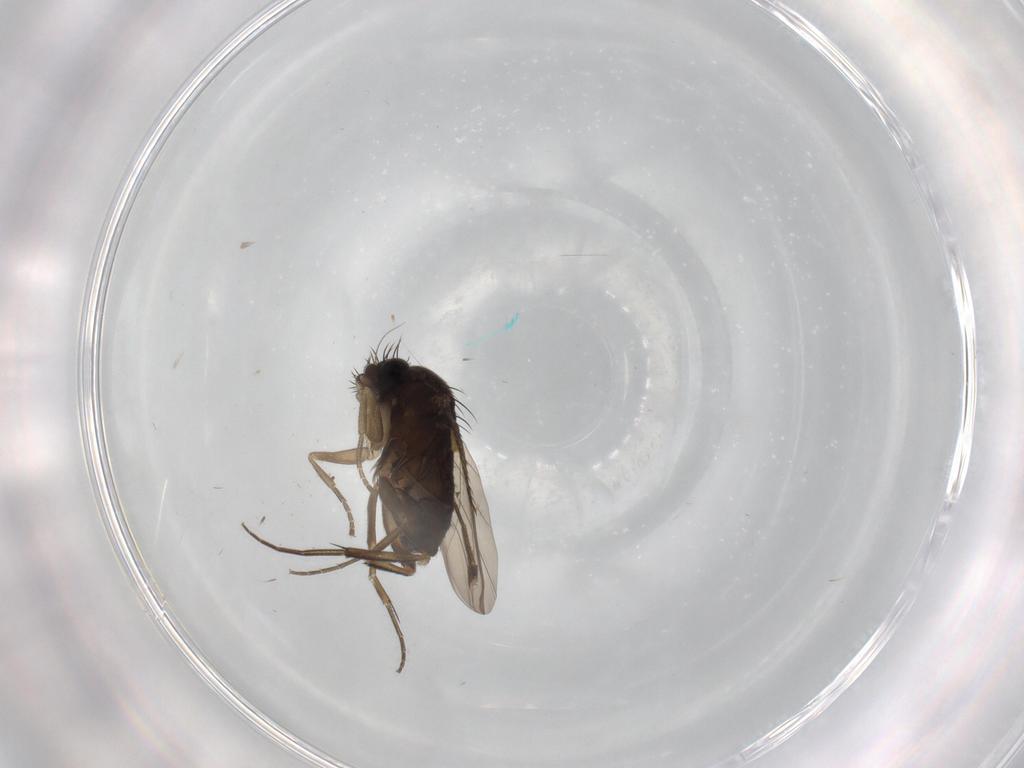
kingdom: Animalia
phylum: Arthropoda
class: Insecta
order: Diptera
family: Phoridae
